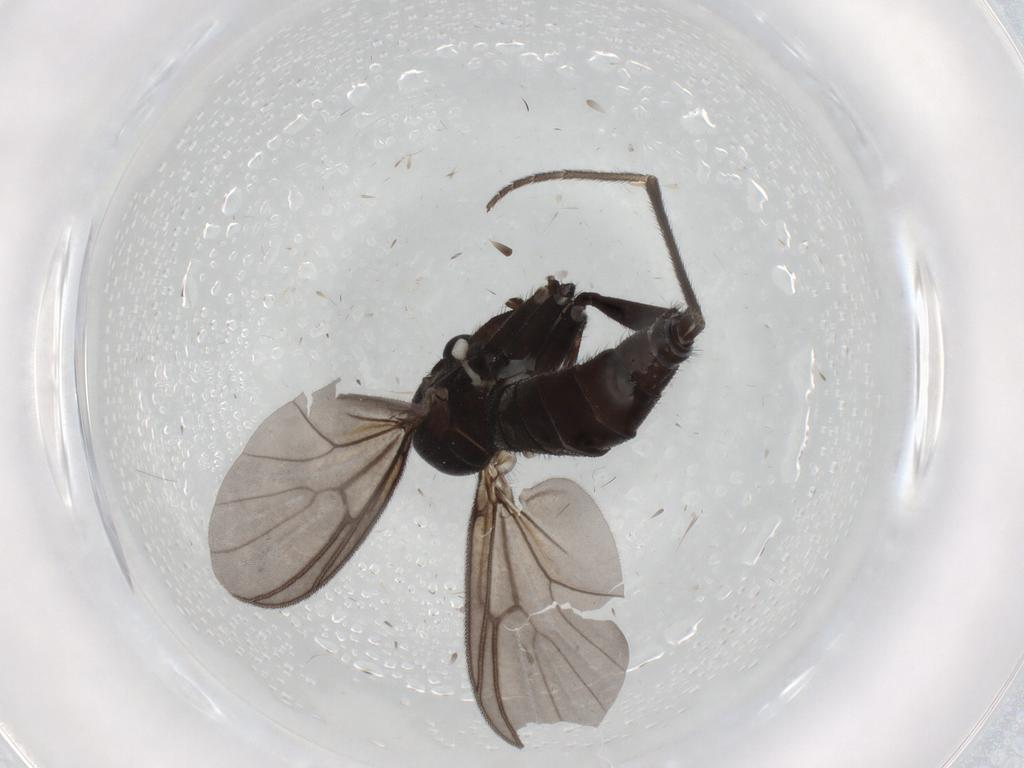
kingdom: Animalia
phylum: Arthropoda
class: Insecta
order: Diptera
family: Mycetophilidae
